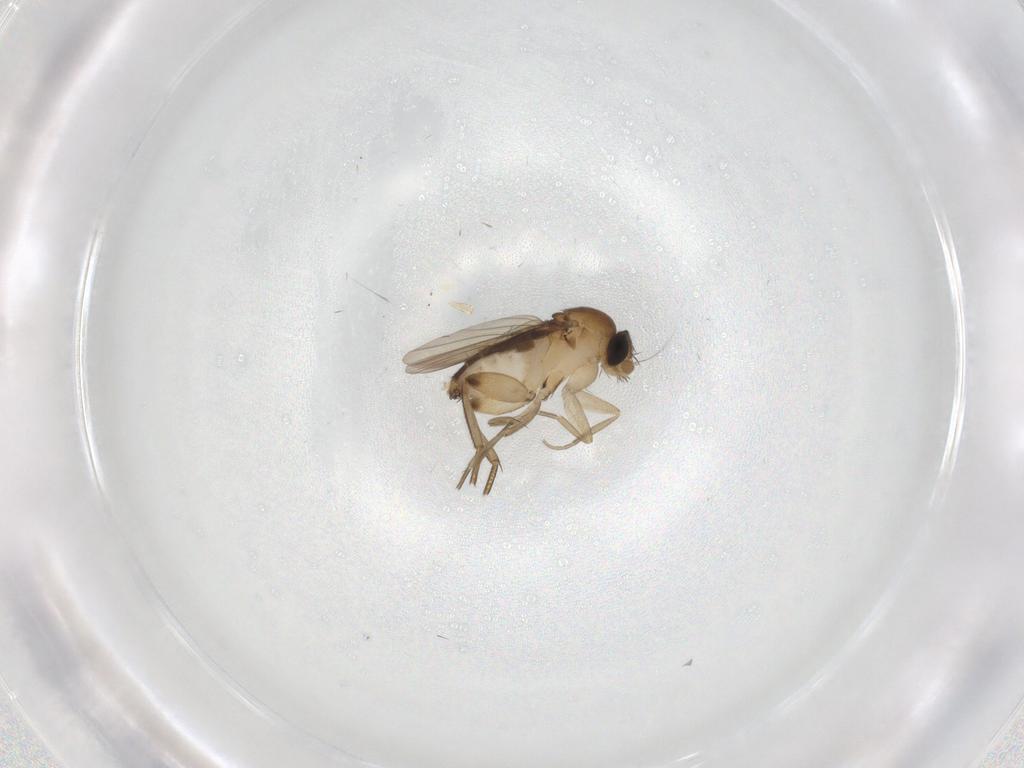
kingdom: Animalia
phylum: Arthropoda
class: Insecta
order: Diptera
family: Phoridae
